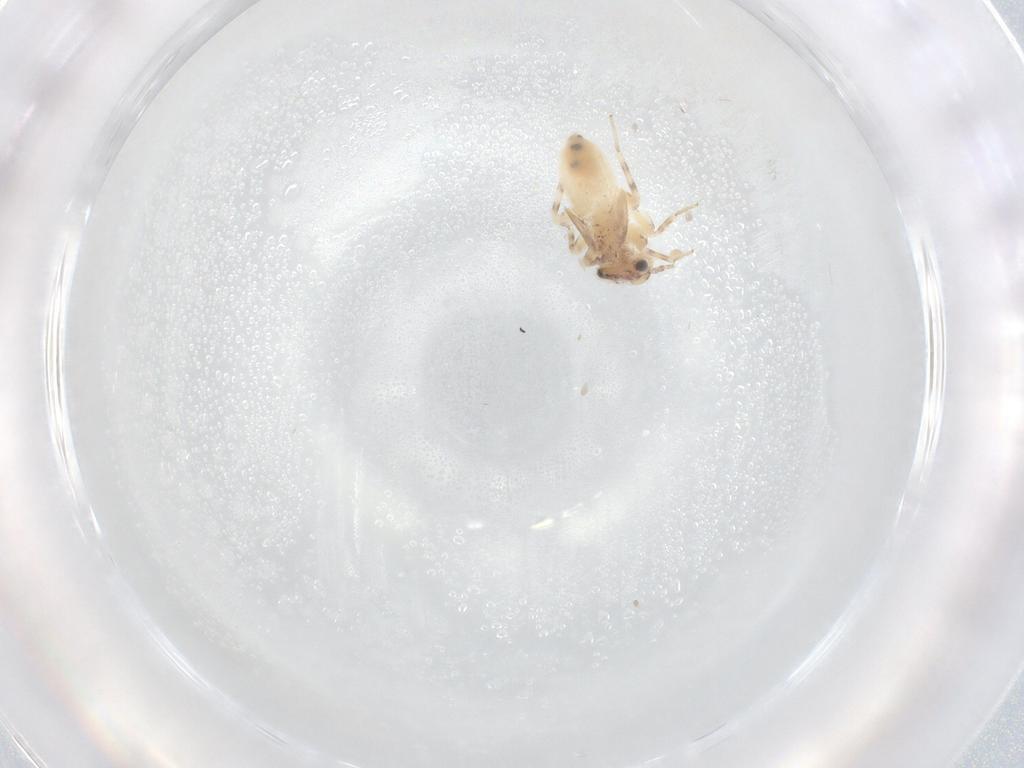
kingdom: Animalia
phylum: Arthropoda
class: Insecta
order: Psocodea
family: Lepidopsocidae
